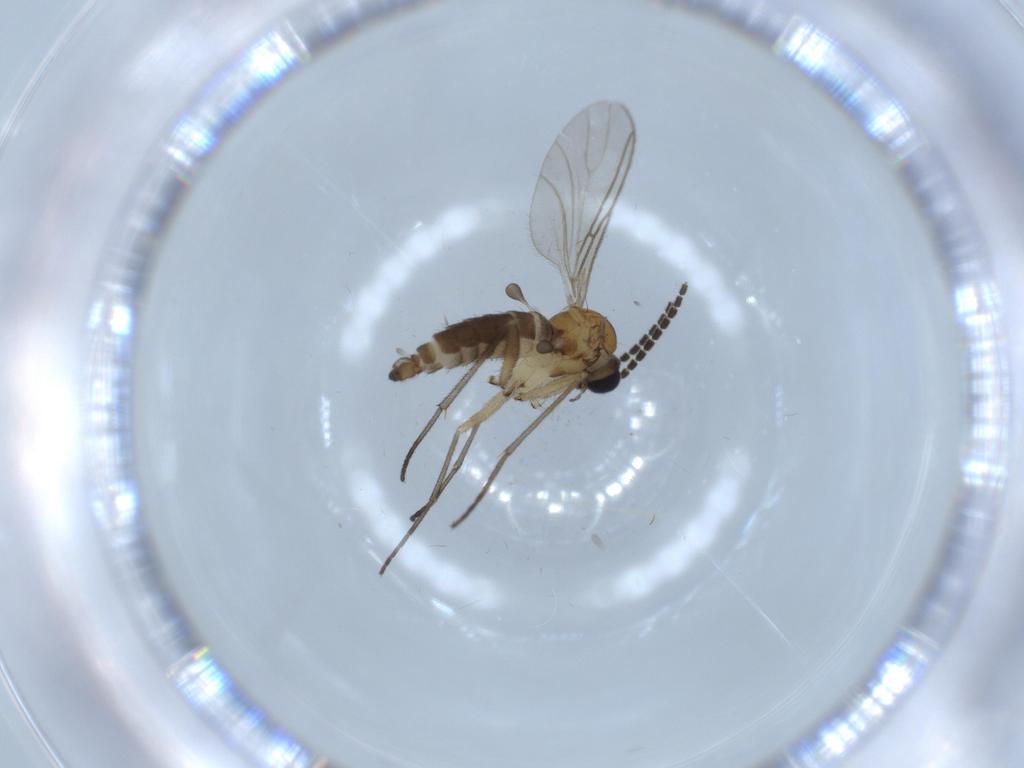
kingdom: Animalia
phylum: Arthropoda
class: Insecta
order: Diptera
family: Sciaridae
